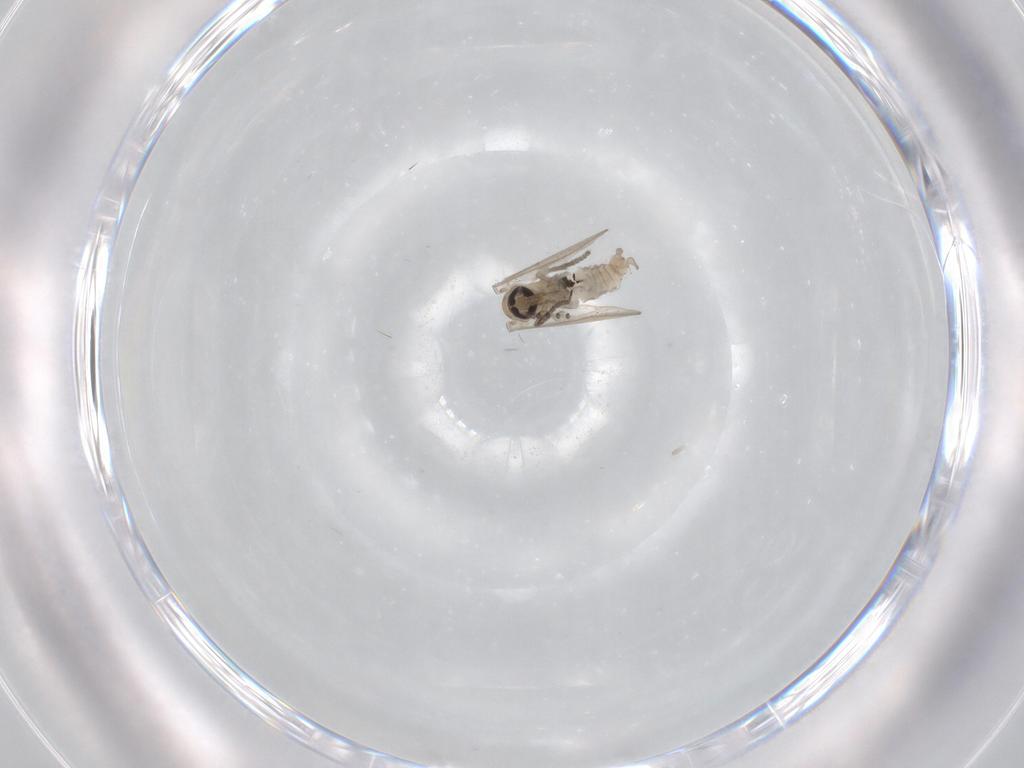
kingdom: Animalia
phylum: Arthropoda
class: Insecta
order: Diptera
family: Psychodidae
